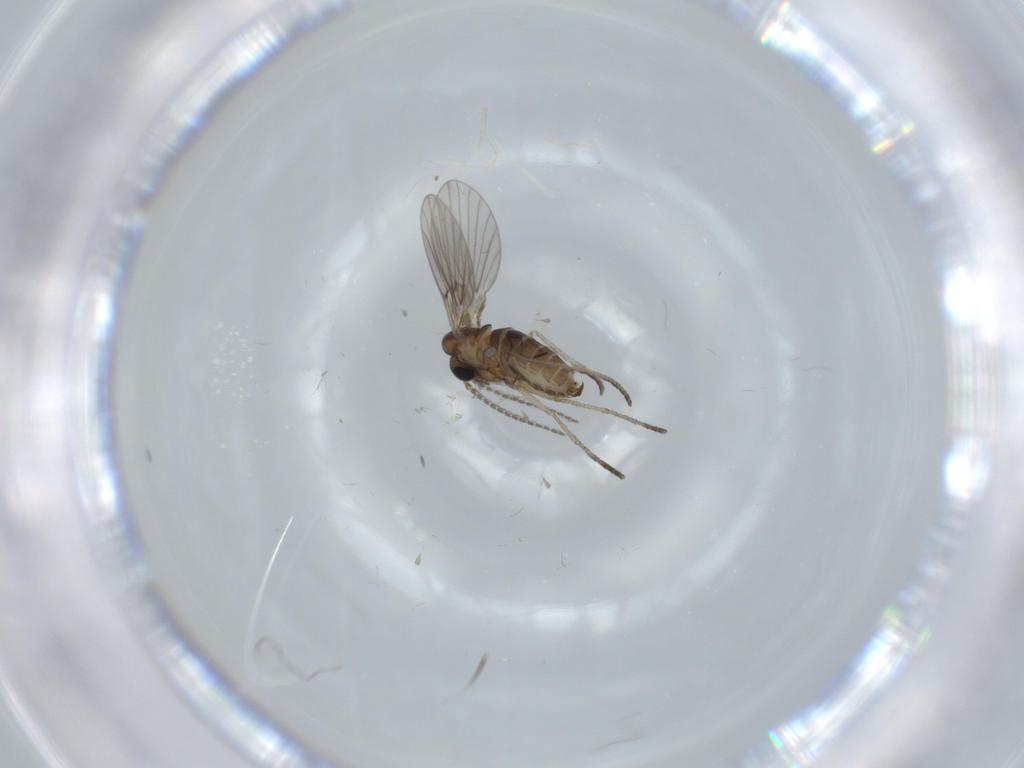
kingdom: Animalia
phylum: Arthropoda
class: Insecta
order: Diptera
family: Psychodidae
